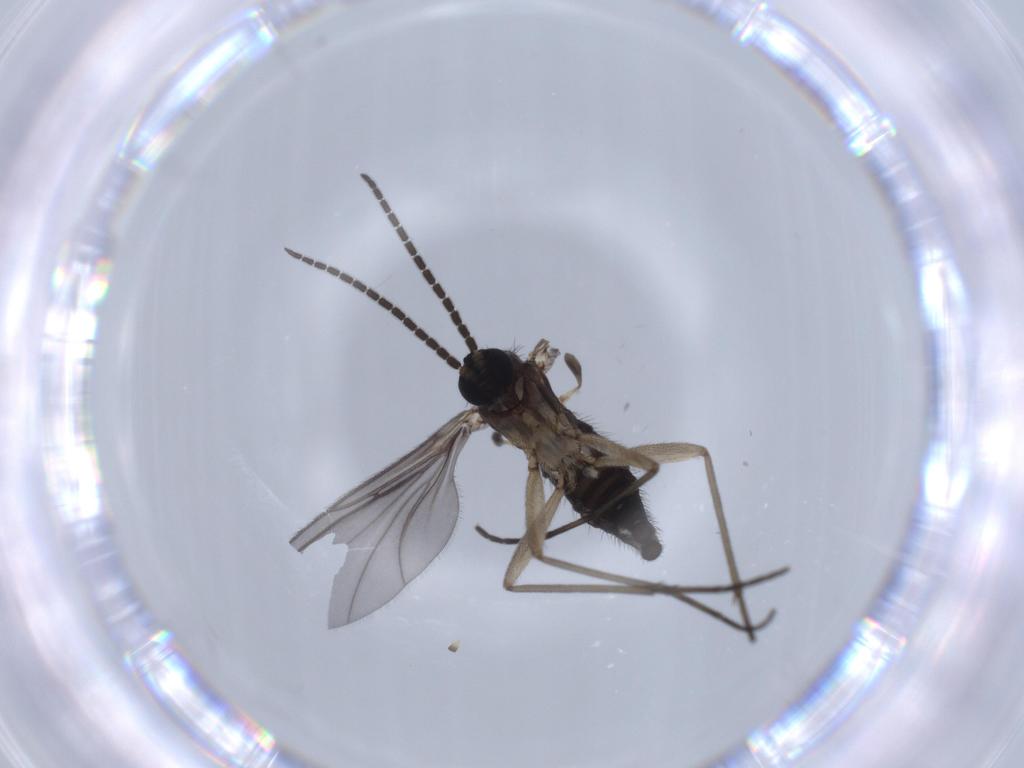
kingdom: Animalia
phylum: Arthropoda
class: Insecta
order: Diptera
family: Sciaridae
